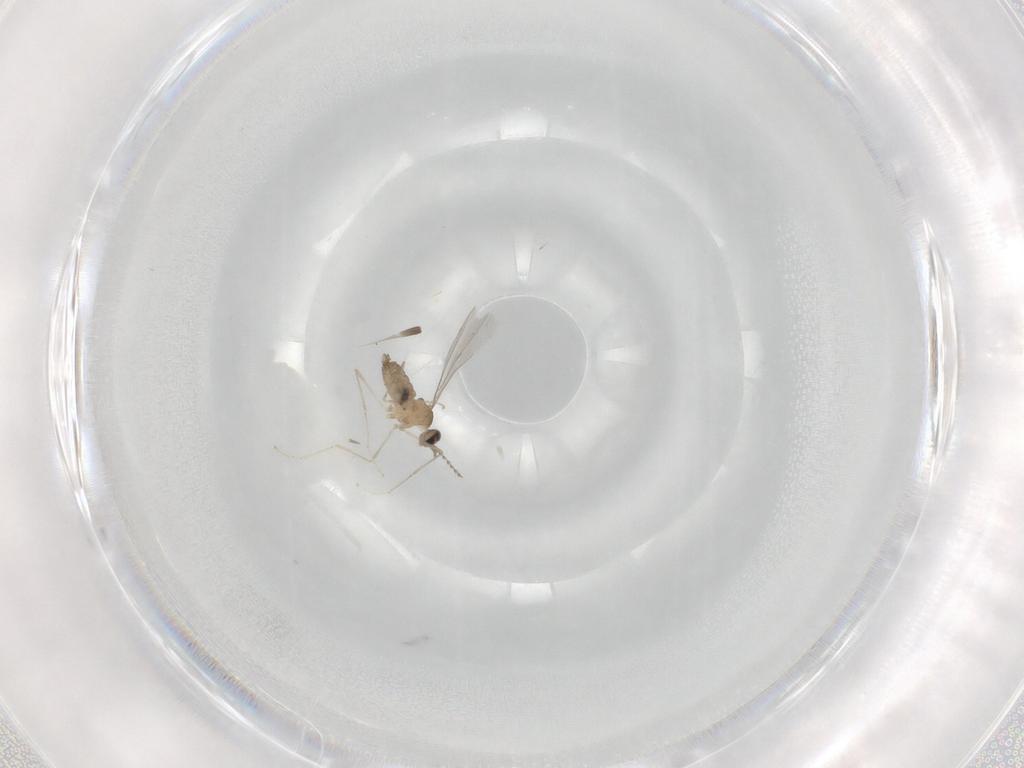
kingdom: Animalia
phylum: Arthropoda
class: Insecta
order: Diptera
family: Cecidomyiidae
